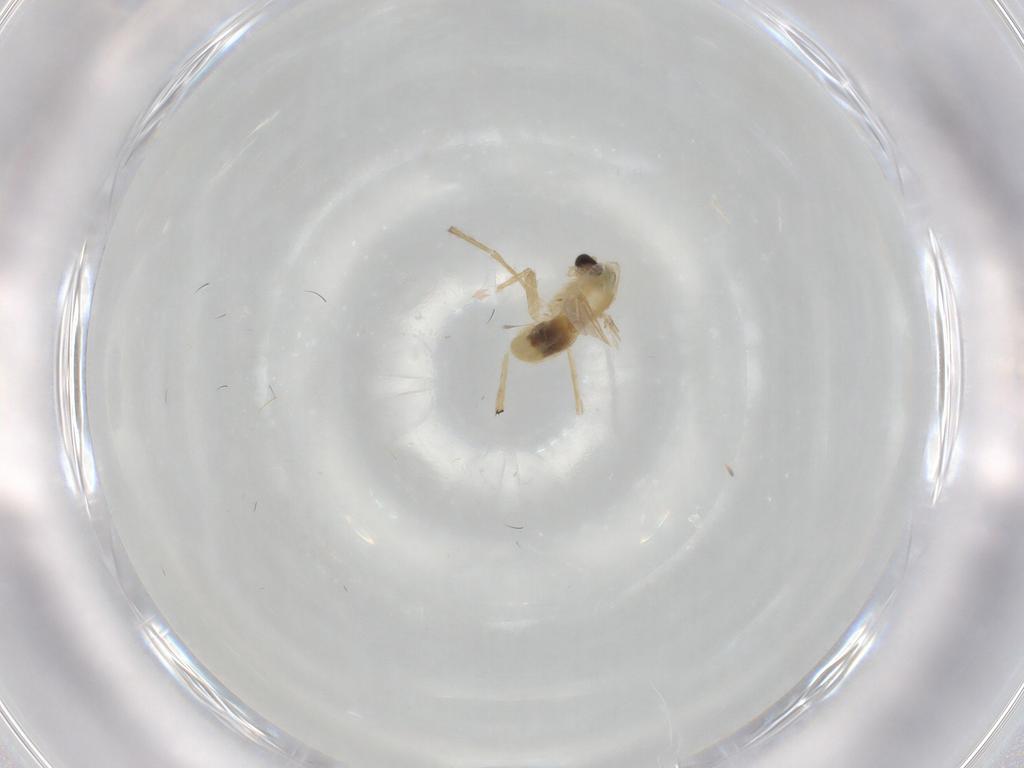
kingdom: Animalia
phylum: Arthropoda
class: Insecta
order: Diptera
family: Chironomidae
